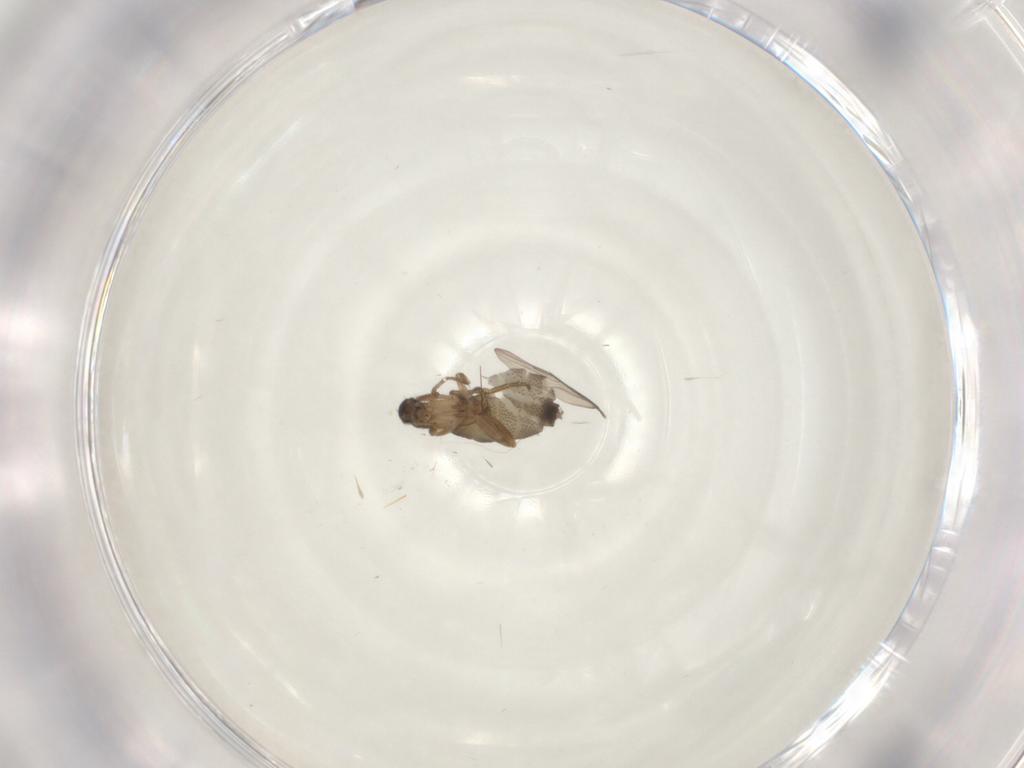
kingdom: Animalia
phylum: Arthropoda
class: Insecta
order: Diptera
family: Phoridae
